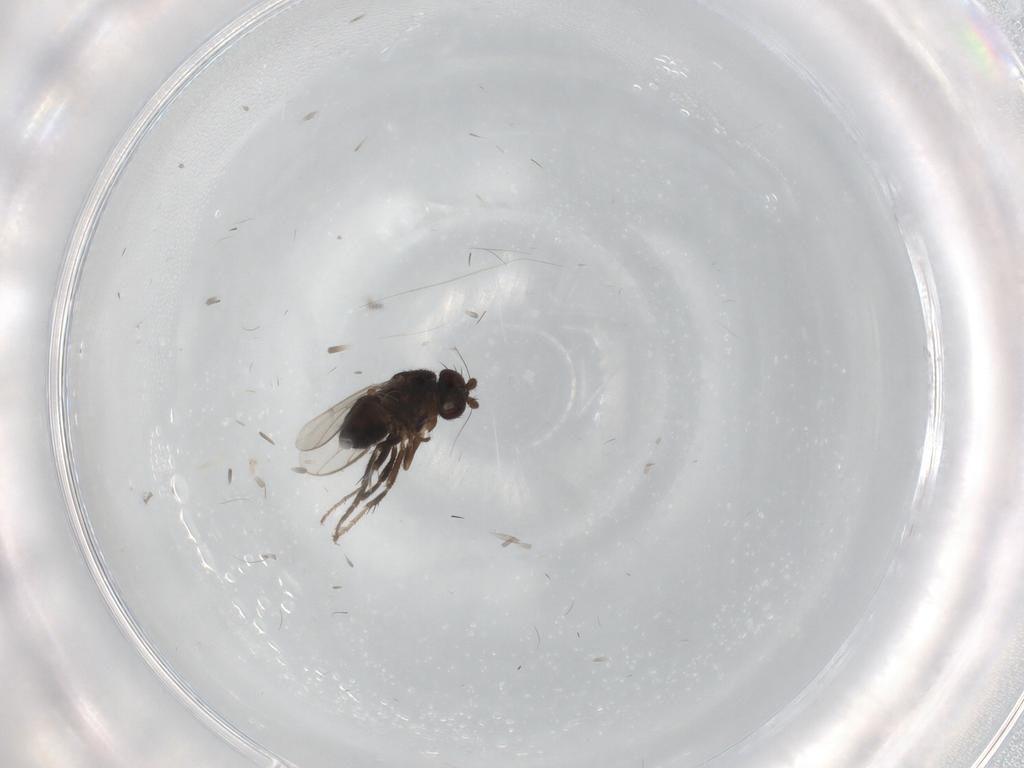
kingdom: Animalia
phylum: Arthropoda
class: Insecta
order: Diptera
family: Sphaeroceridae
